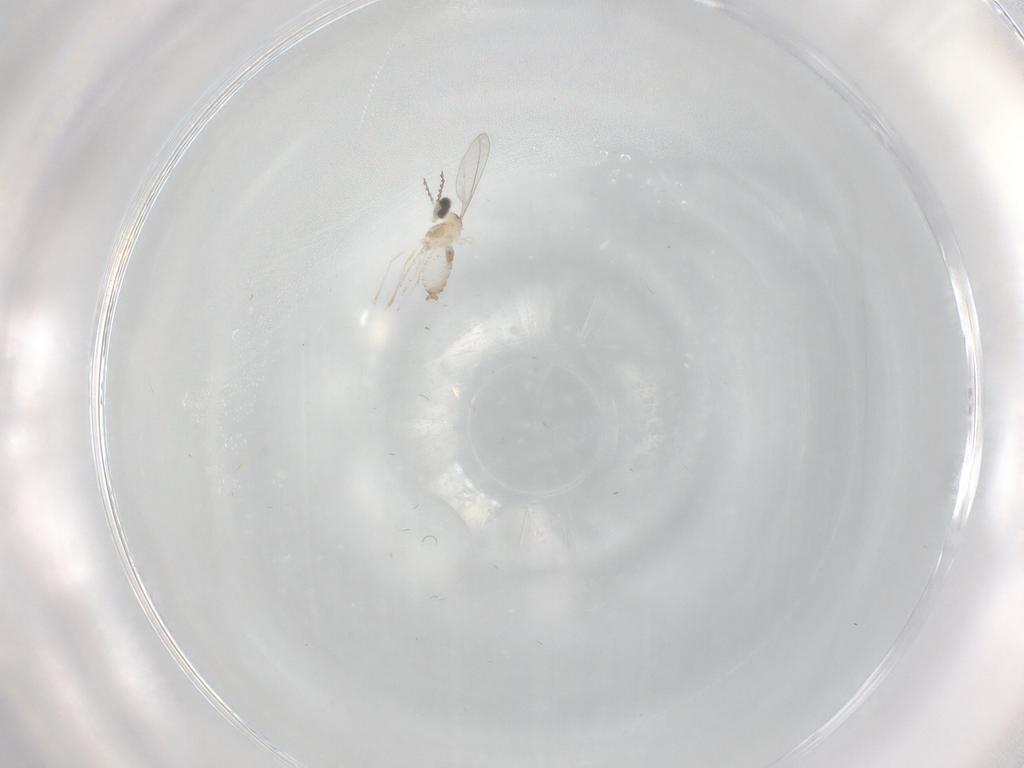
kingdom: Animalia
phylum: Arthropoda
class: Insecta
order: Diptera
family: Cecidomyiidae
